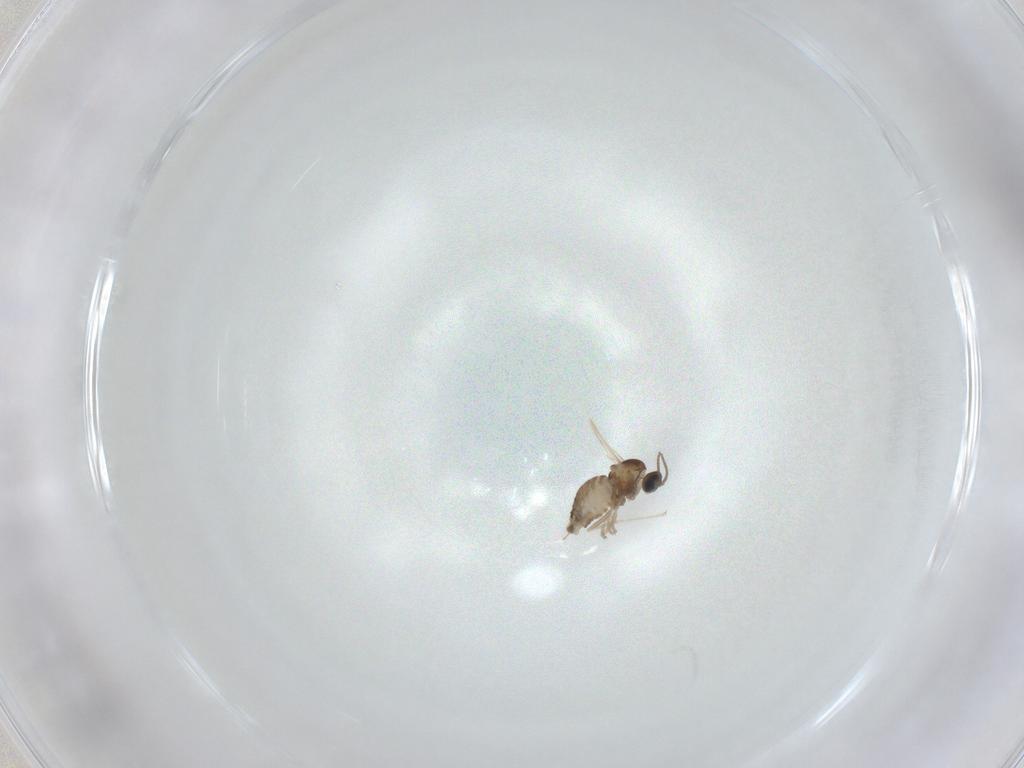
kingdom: Animalia
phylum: Arthropoda
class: Insecta
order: Diptera
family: Cecidomyiidae
